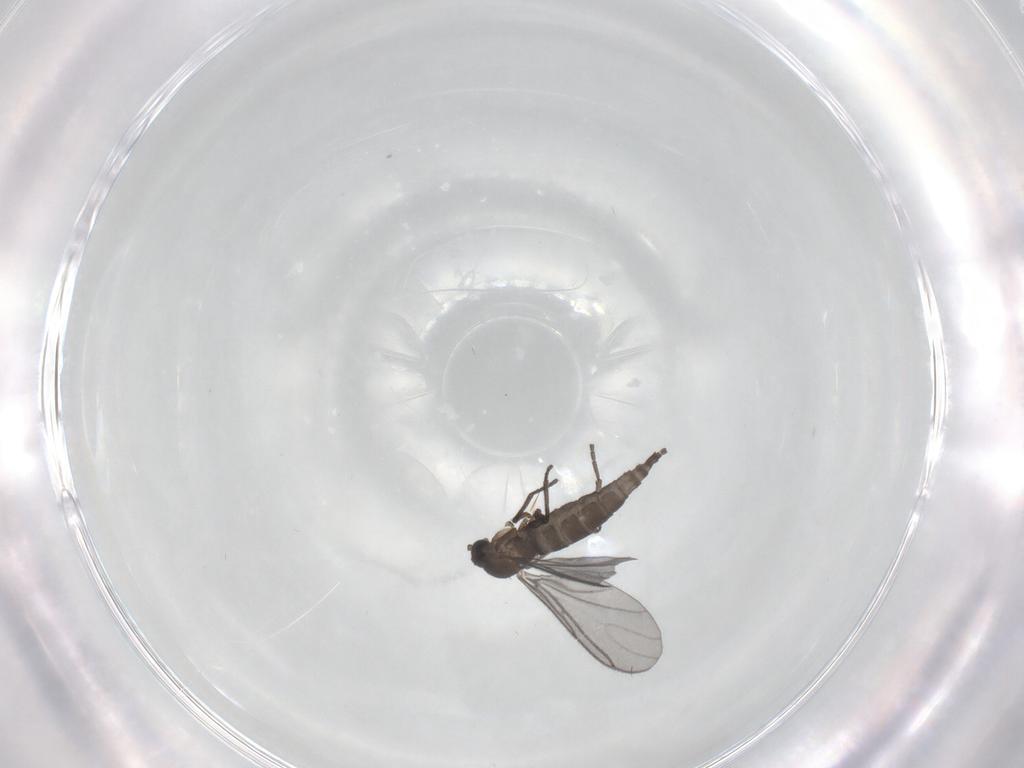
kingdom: Animalia
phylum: Arthropoda
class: Insecta
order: Diptera
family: Sciaridae
